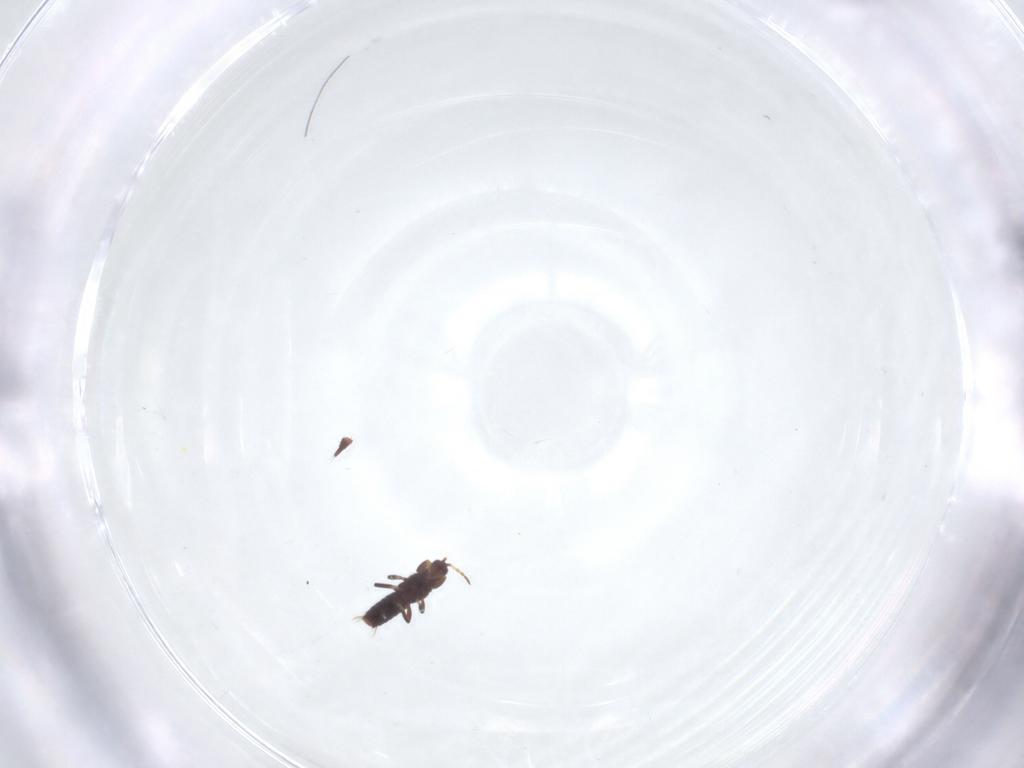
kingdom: Animalia
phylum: Arthropoda
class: Insecta
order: Thysanoptera
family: Phlaeothripidae
